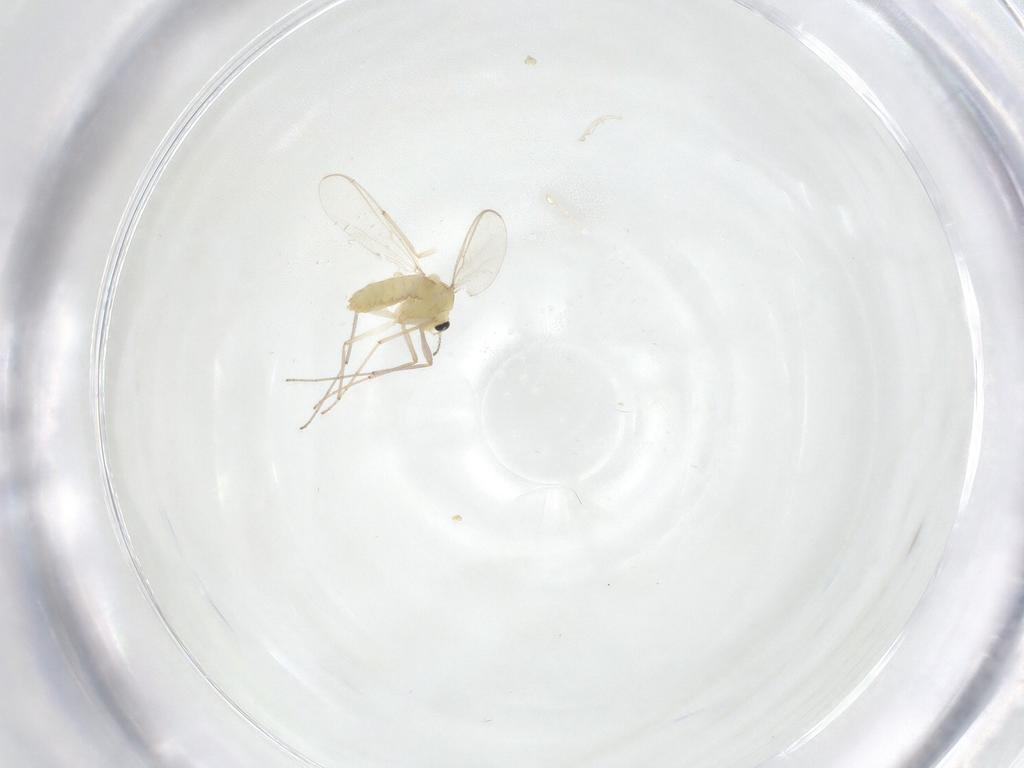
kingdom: Animalia
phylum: Arthropoda
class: Insecta
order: Diptera
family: Chironomidae
